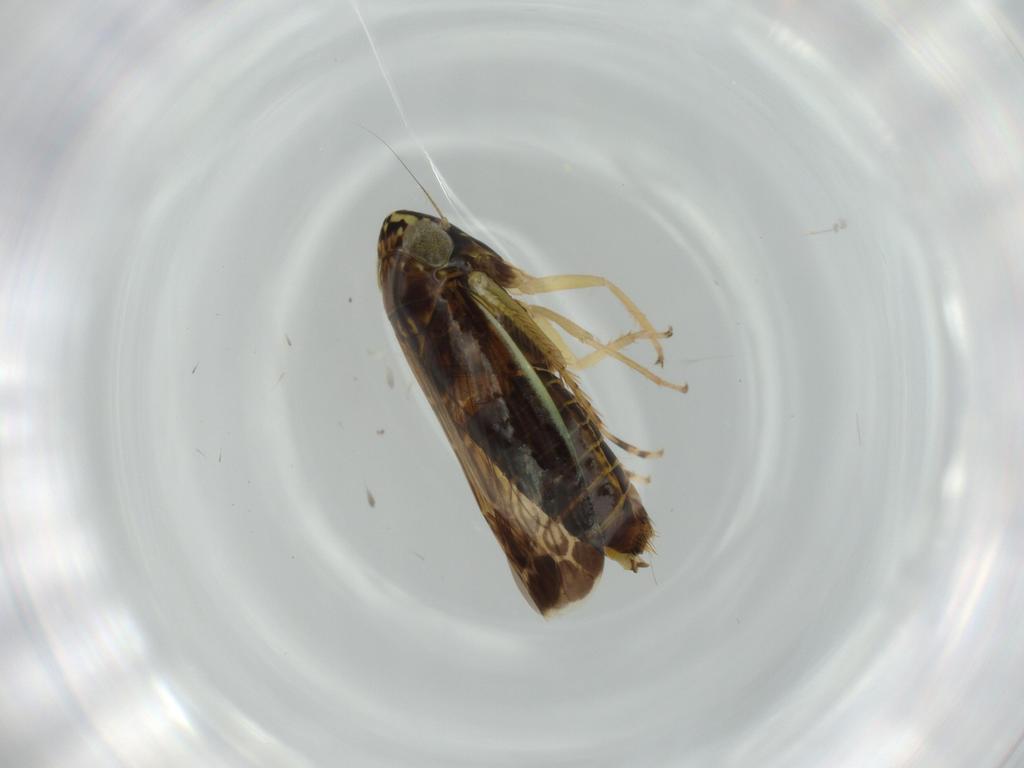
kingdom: Animalia
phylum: Arthropoda
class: Insecta
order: Hemiptera
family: Cicadellidae
